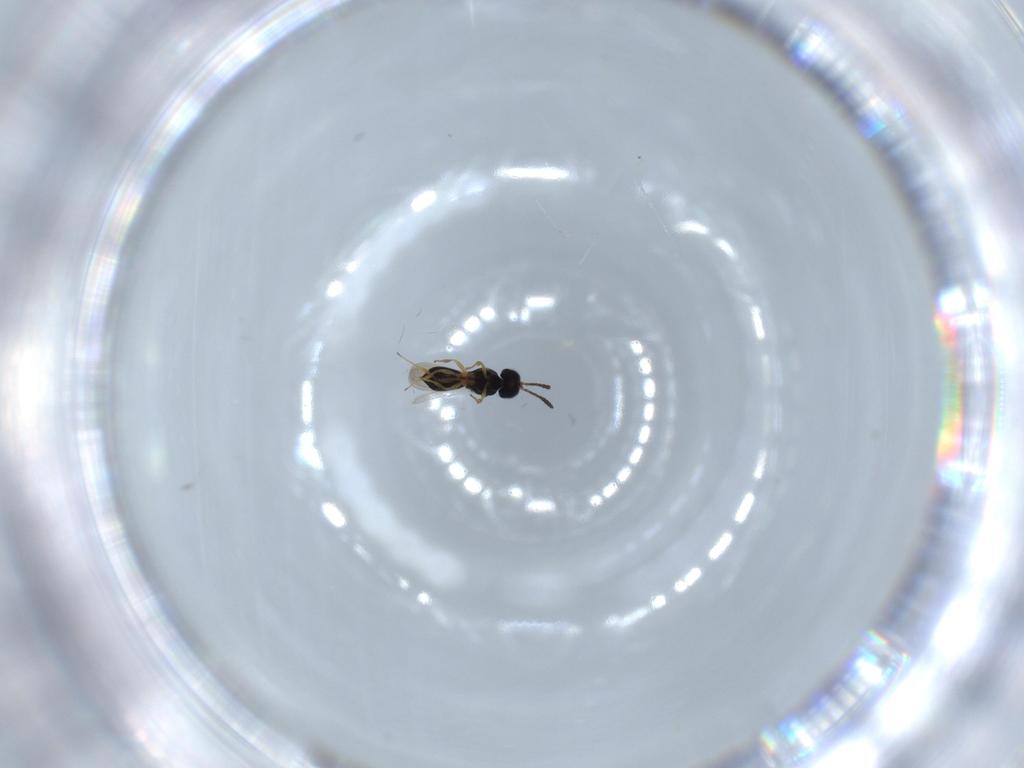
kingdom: Animalia
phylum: Arthropoda
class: Insecta
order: Hymenoptera
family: Scelionidae
